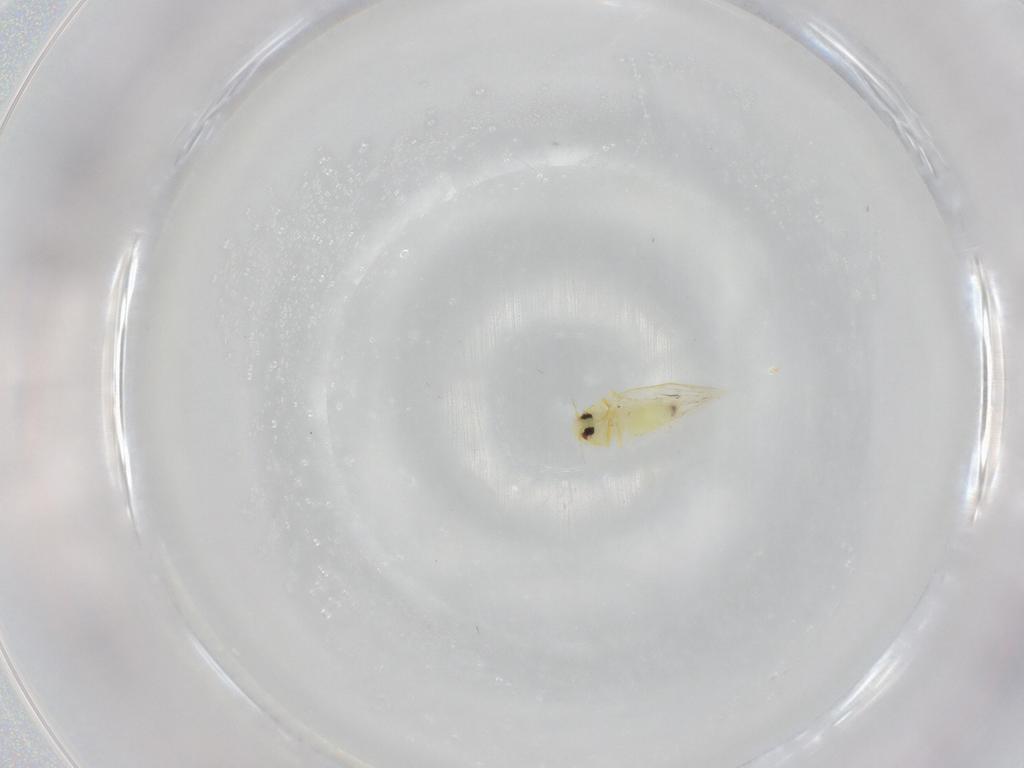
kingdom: Animalia
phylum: Arthropoda
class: Insecta
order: Hemiptera
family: Aleyrodidae
